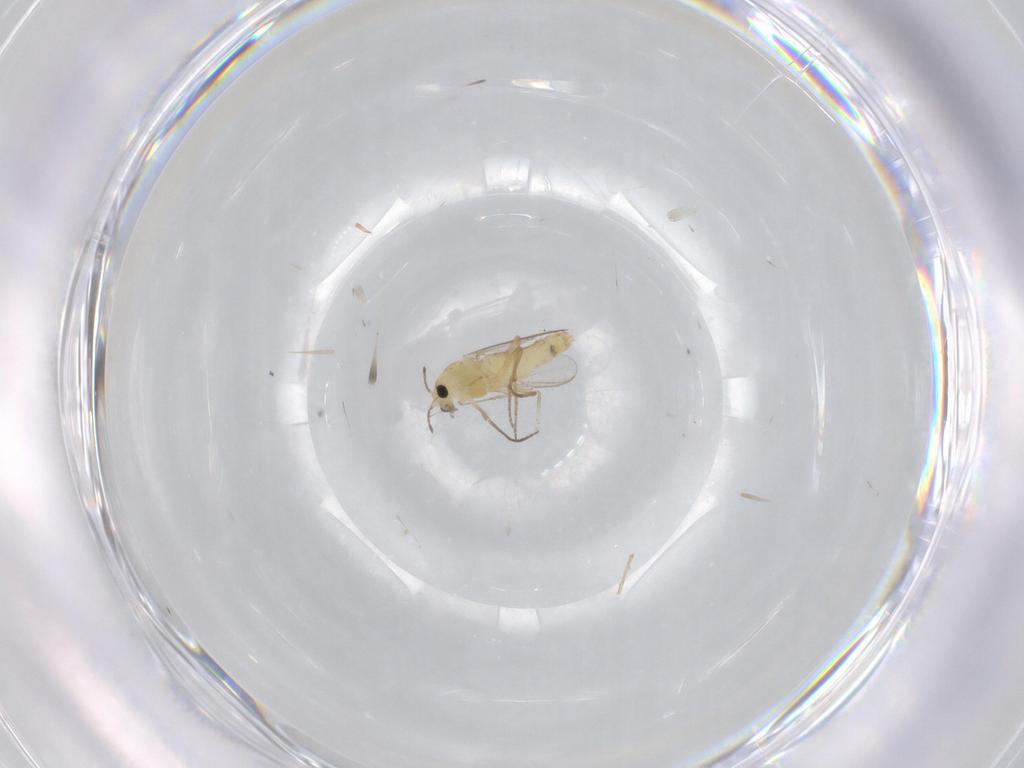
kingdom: Animalia
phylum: Arthropoda
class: Insecta
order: Diptera
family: Chironomidae
